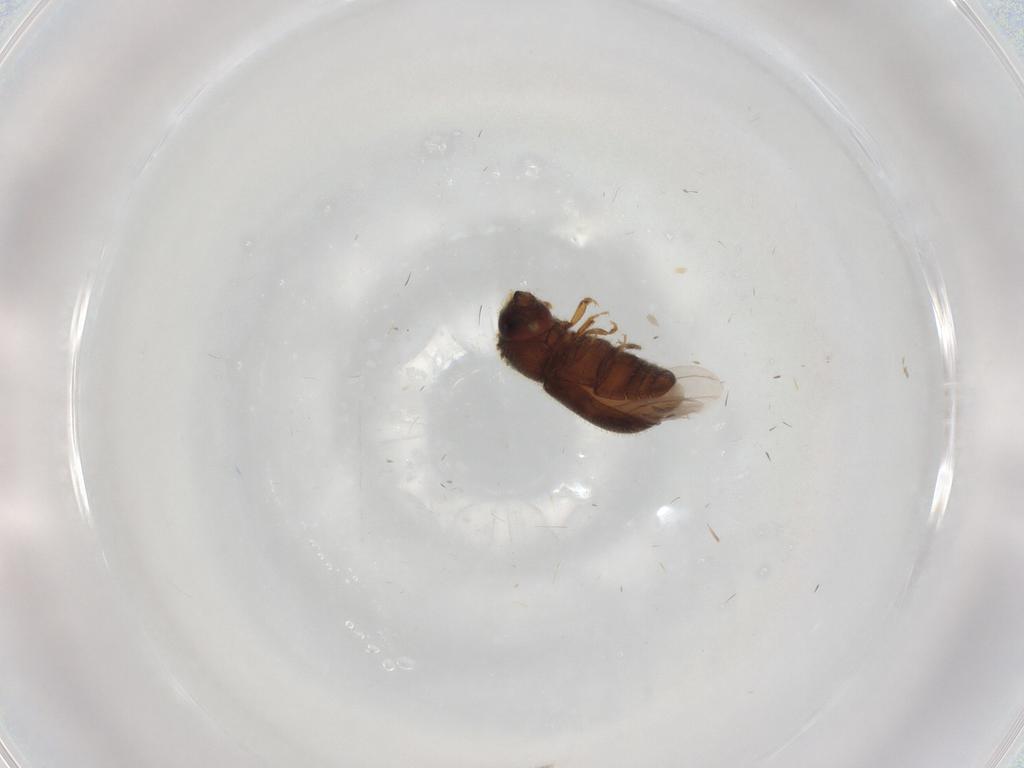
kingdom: Animalia
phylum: Arthropoda
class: Insecta
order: Coleoptera
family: Curculionidae
